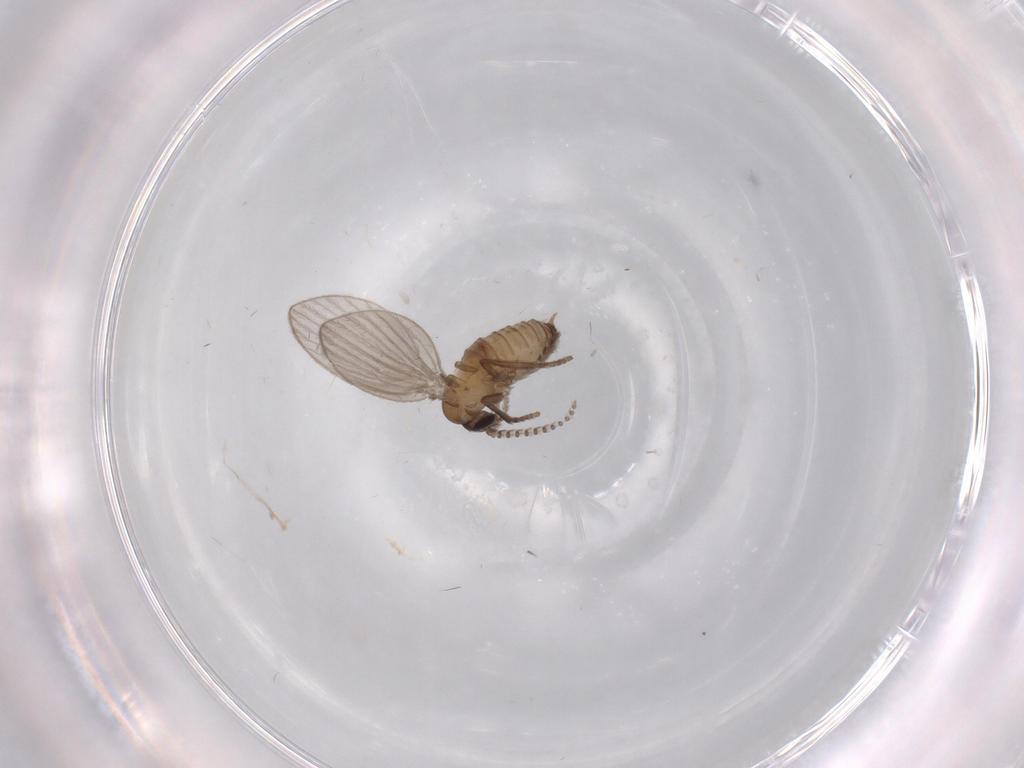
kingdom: Animalia
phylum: Arthropoda
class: Insecta
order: Diptera
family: Psychodidae
